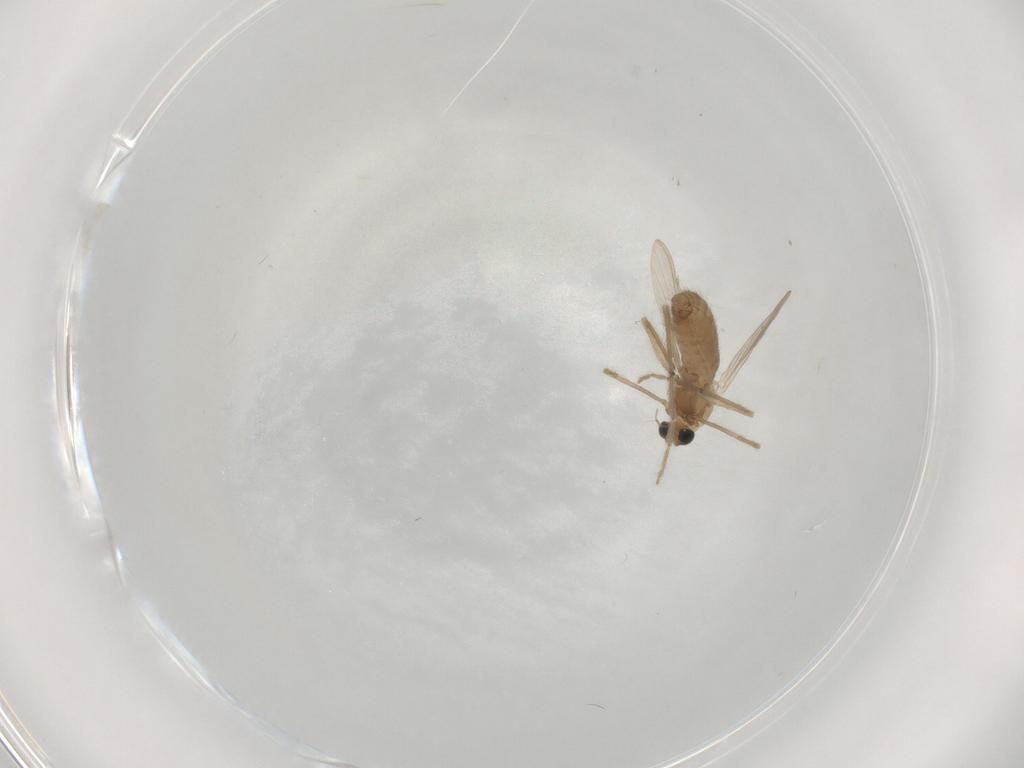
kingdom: Animalia
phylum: Arthropoda
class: Insecta
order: Diptera
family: Chironomidae
